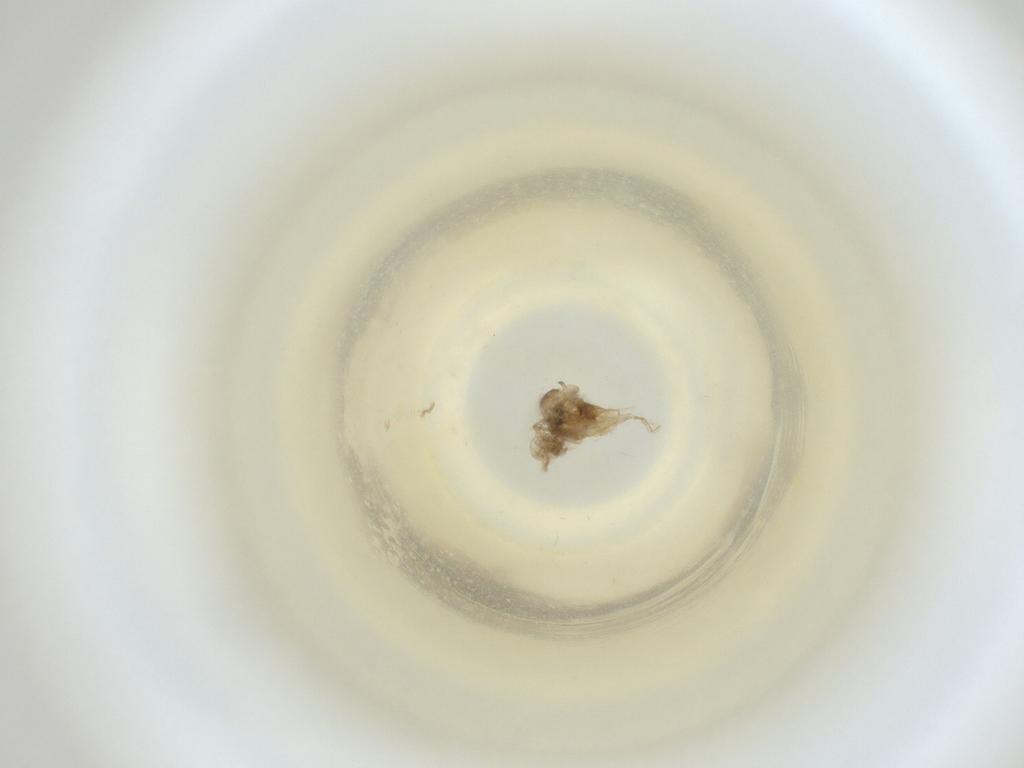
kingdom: Animalia
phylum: Arthropoda
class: Insecta
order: Diptera
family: Cecidomyiidae
